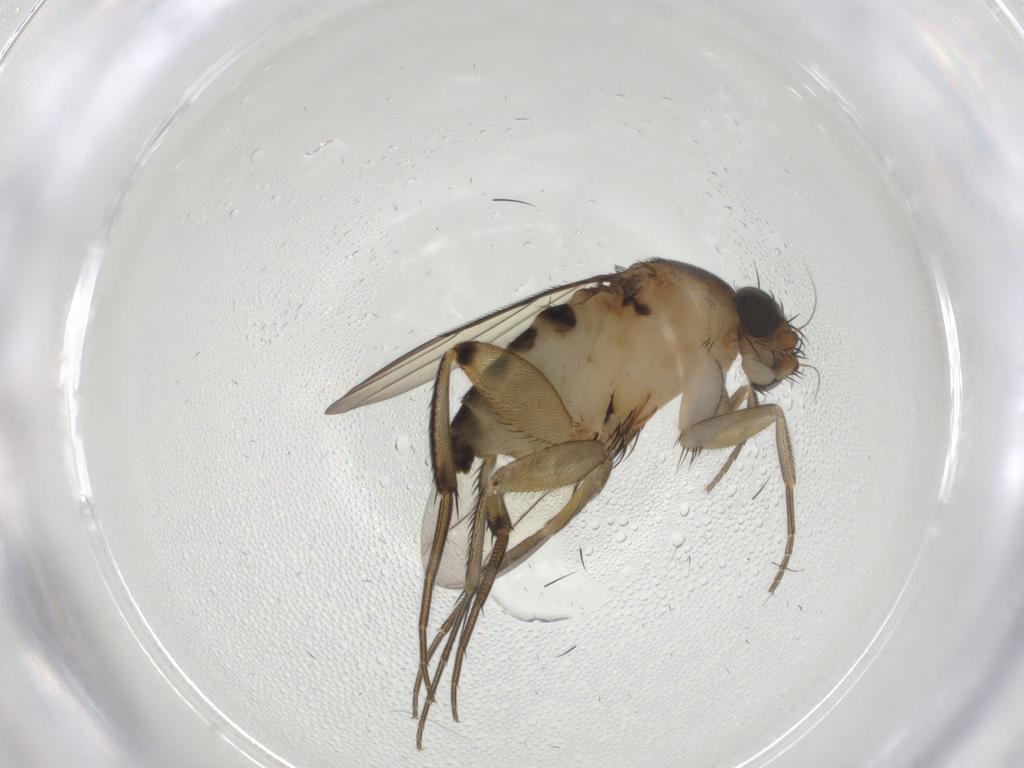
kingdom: Animalia
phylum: Arthropoda
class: Insecta
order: Diptera
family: Phoridae
